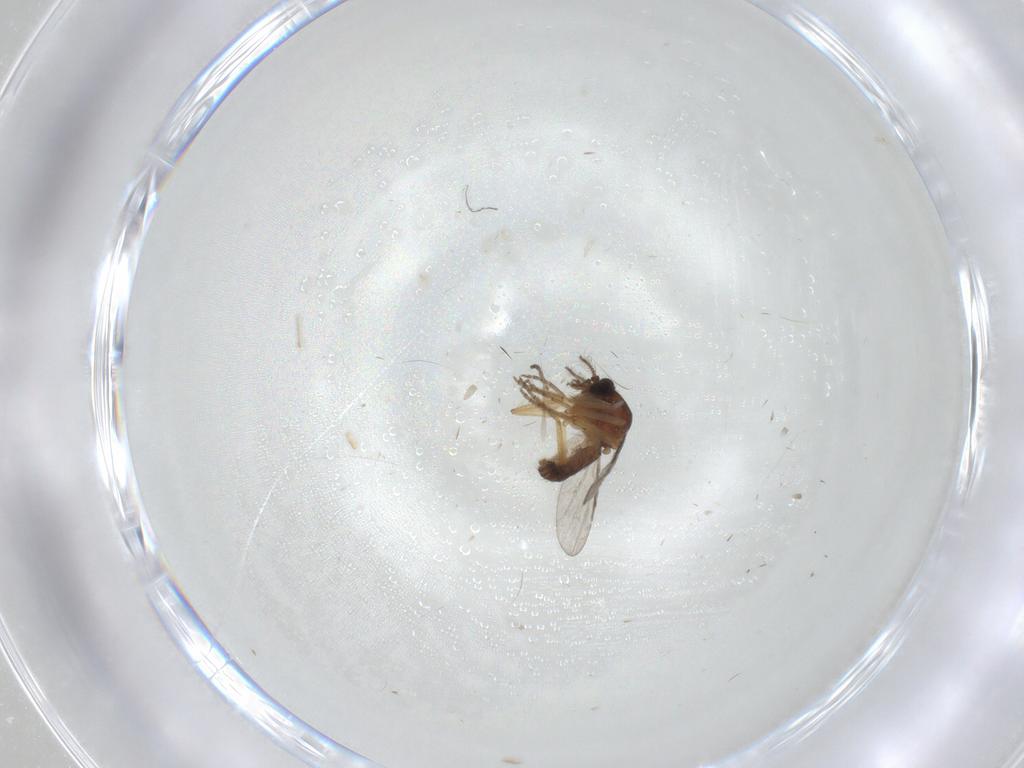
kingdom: Animalia
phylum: Arthropoda
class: Insecta
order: Diptera
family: Ceratopogonidae
